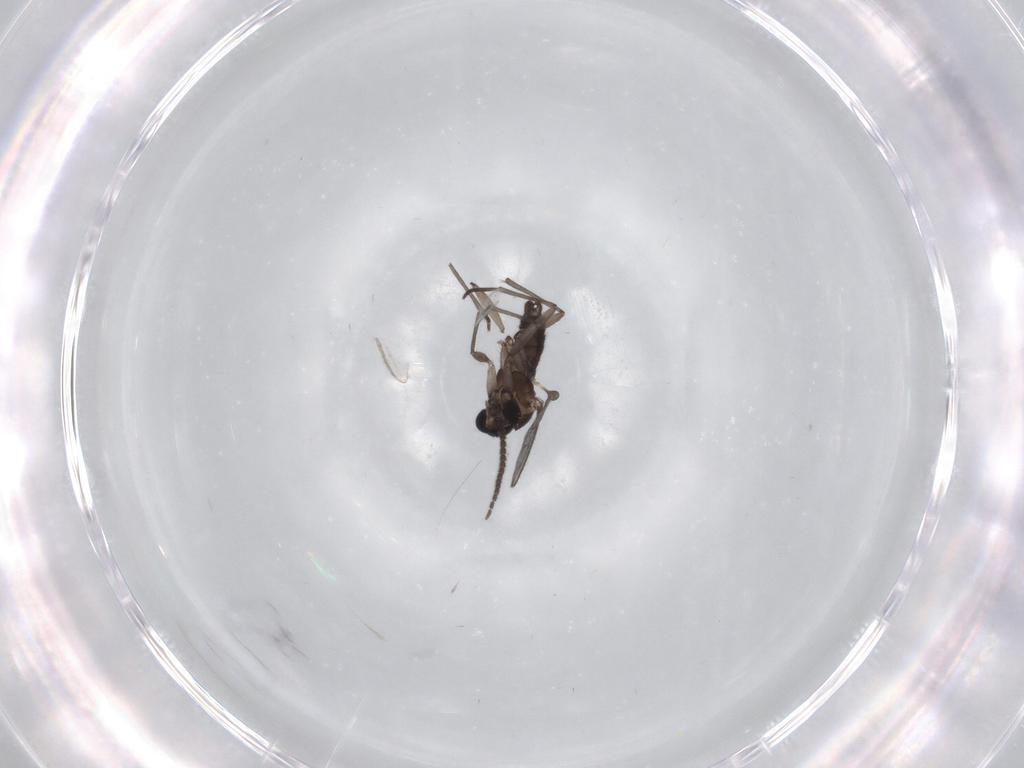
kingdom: Animalia
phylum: Arthropoda
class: Insecta
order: Diptera
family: Sciaridae
